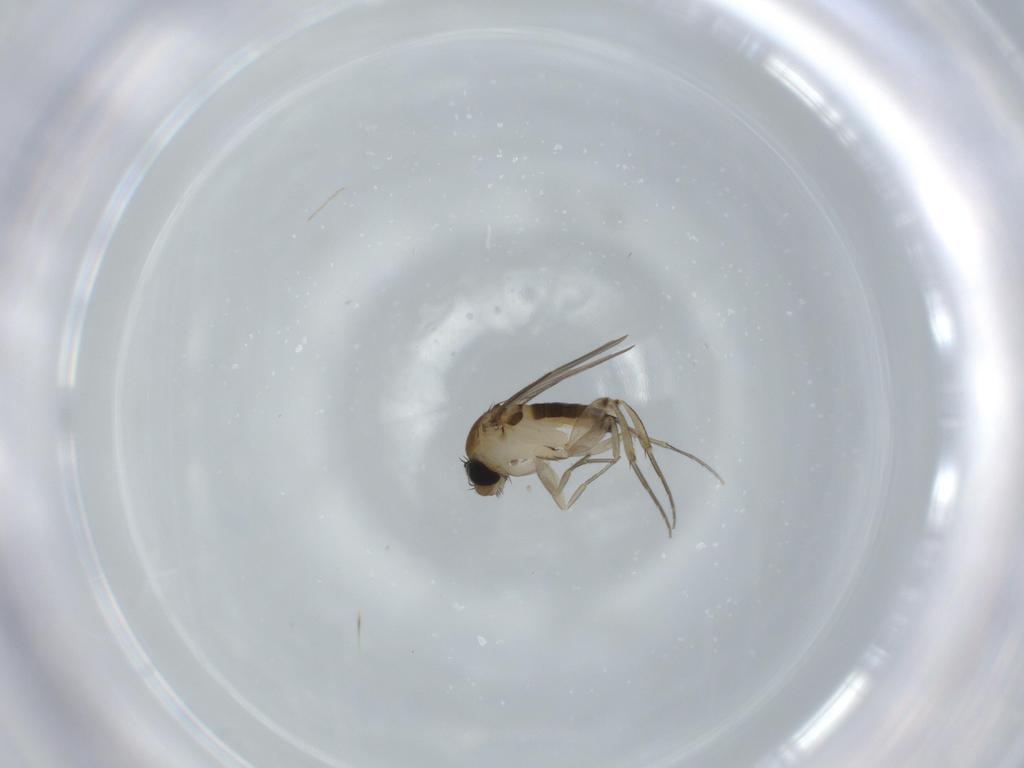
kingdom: Animalia
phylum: Arthropoda
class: Insecta
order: Diptera
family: Phoridae
